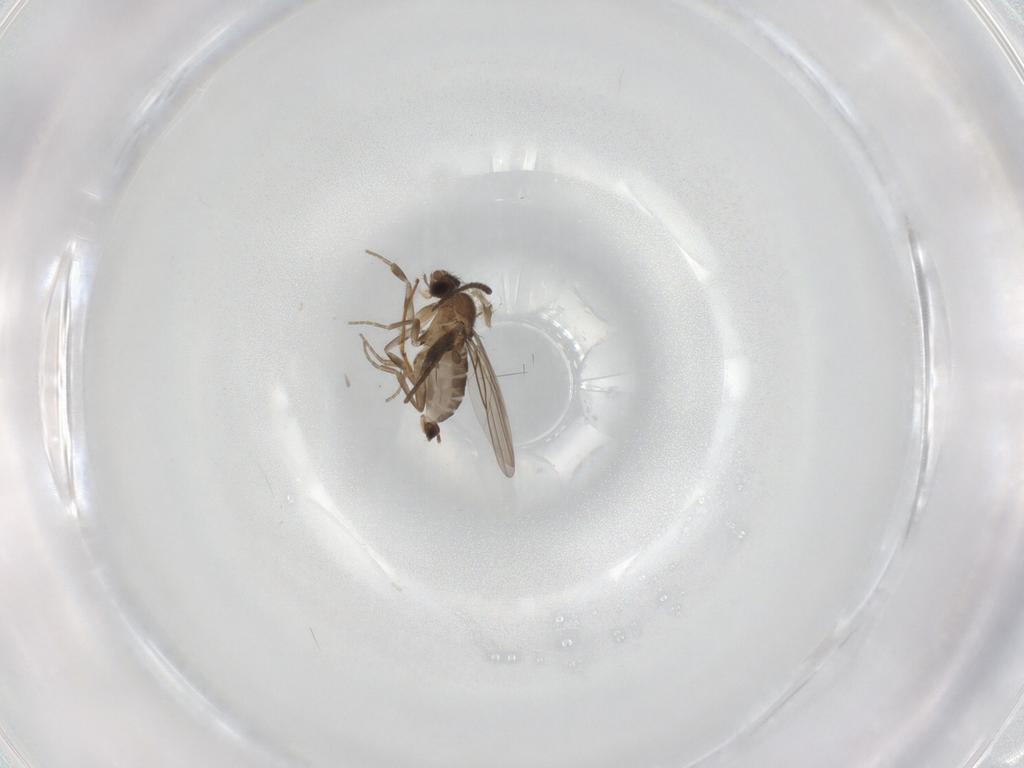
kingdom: Animalia
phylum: Arthropoda
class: Insecta
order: Diptera
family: Phoridae
